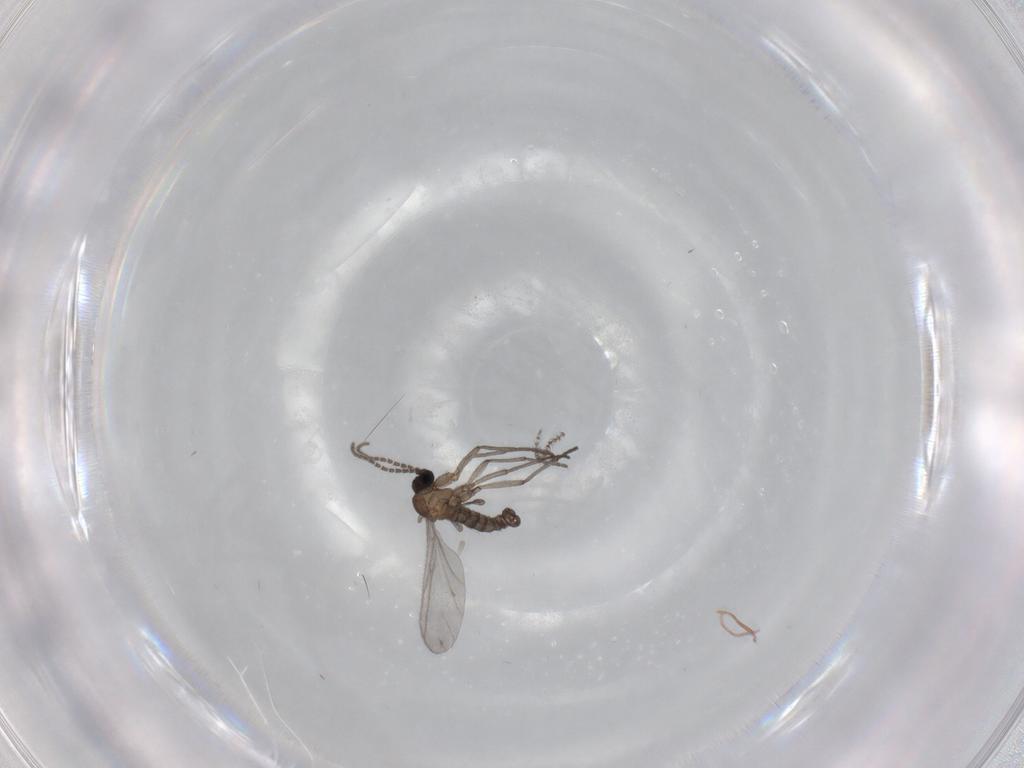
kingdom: Animalia
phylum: Arthropoda
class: Insecta
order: Diptera
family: Sciaridae
